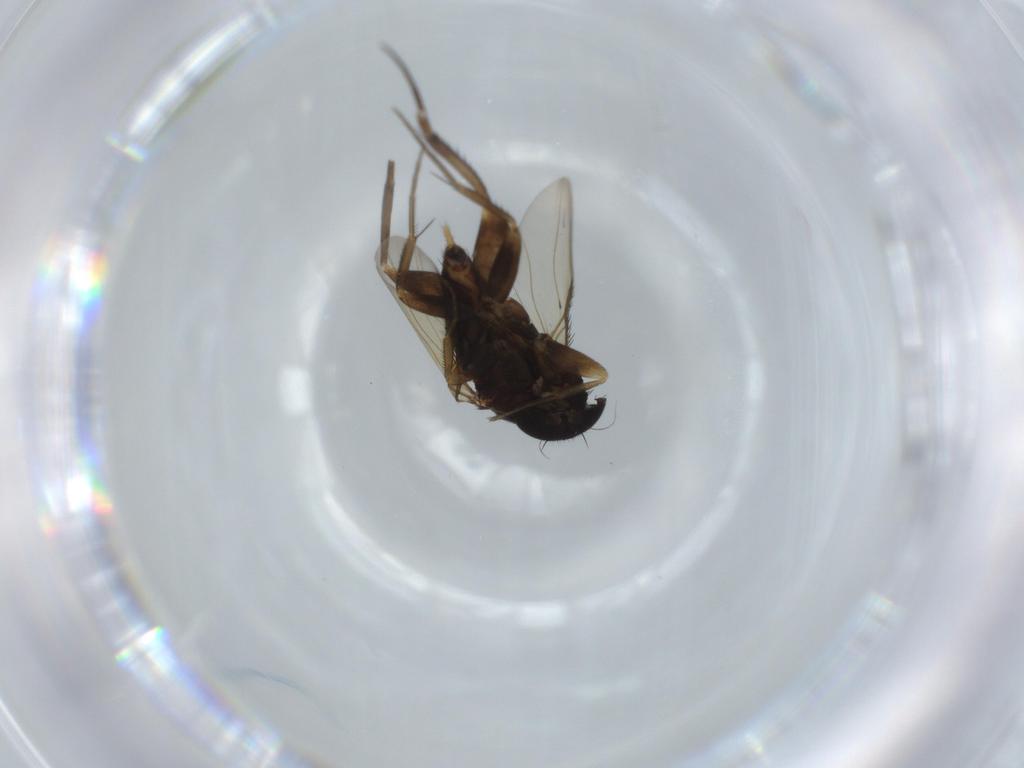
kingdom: Animalia
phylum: Arthropoda
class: Insecta
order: Diptera
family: Phoridae
